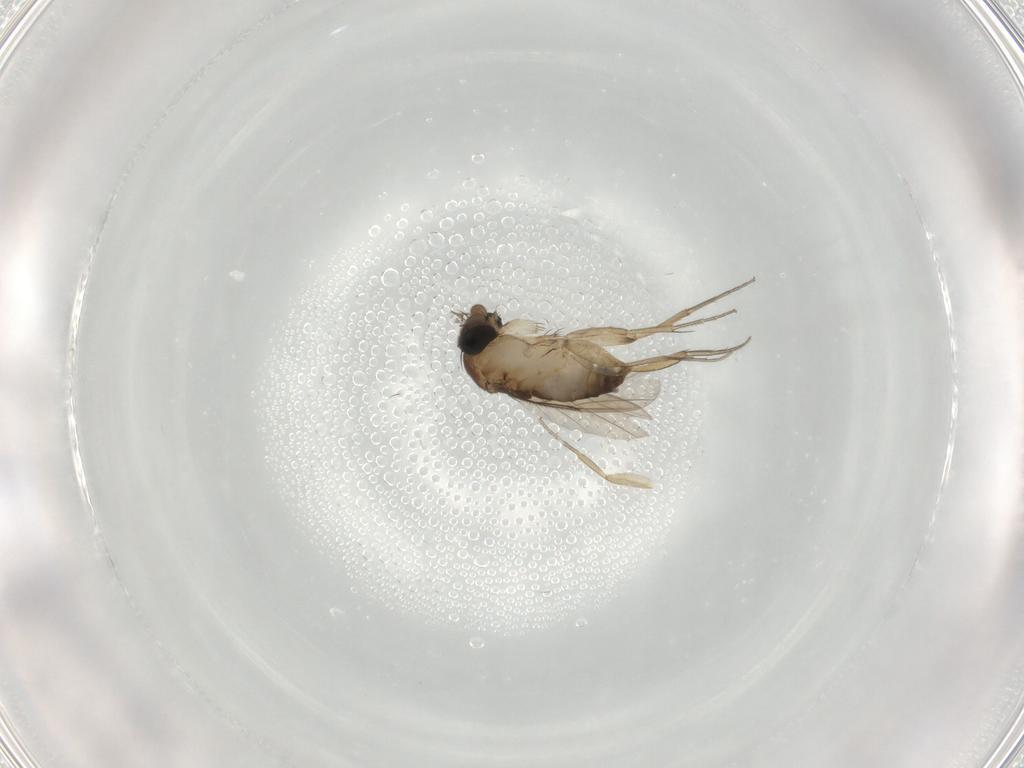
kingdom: Animalia
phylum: Arthropoda
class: Insecta
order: Diptera
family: Phoridae
